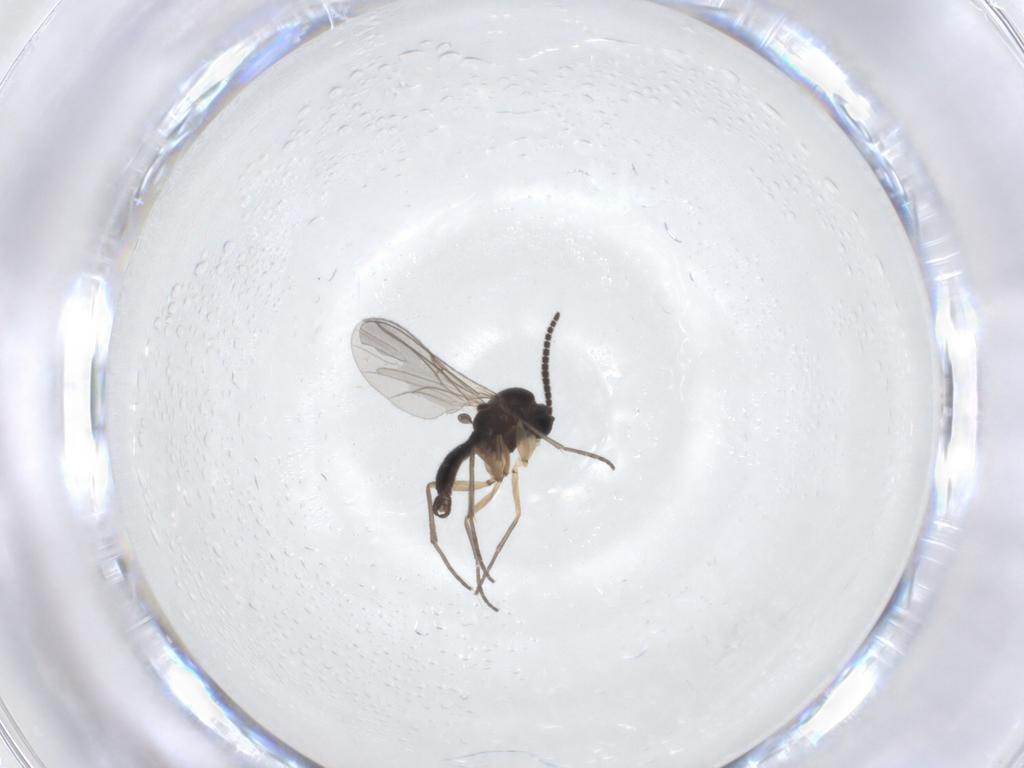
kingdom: Animalia
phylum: Arthropoda
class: Insecta
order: Diptera
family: Sciaridae
